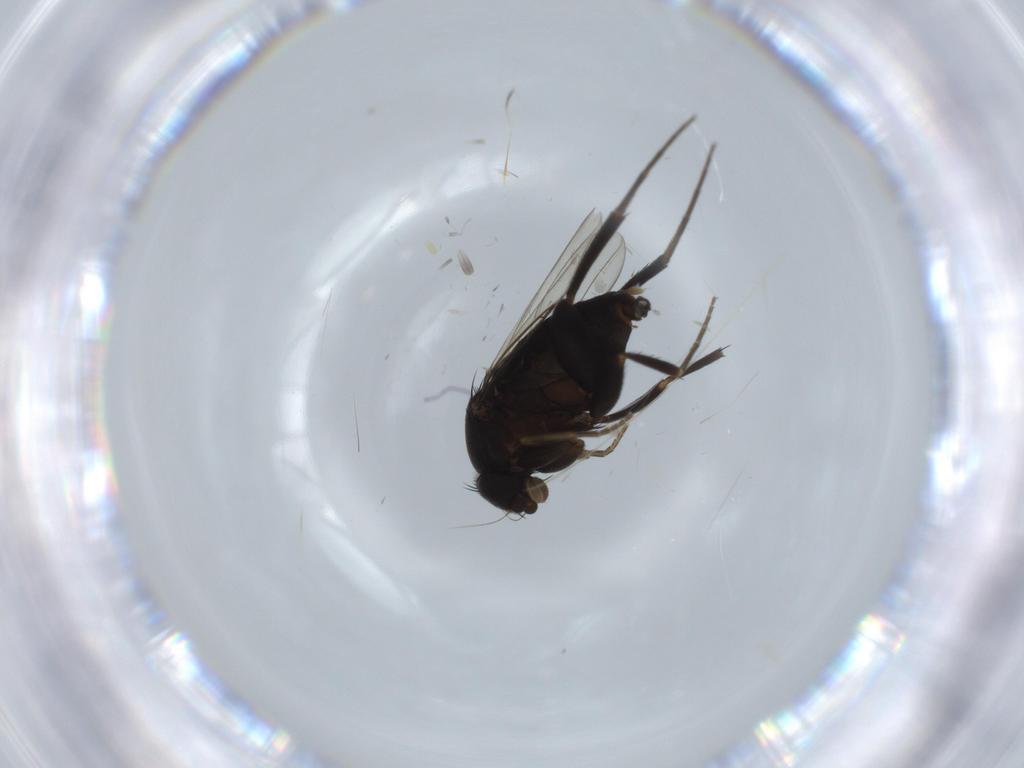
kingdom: Animalia
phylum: Arthropoda
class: Insecta
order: Diptera
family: Phoridae
